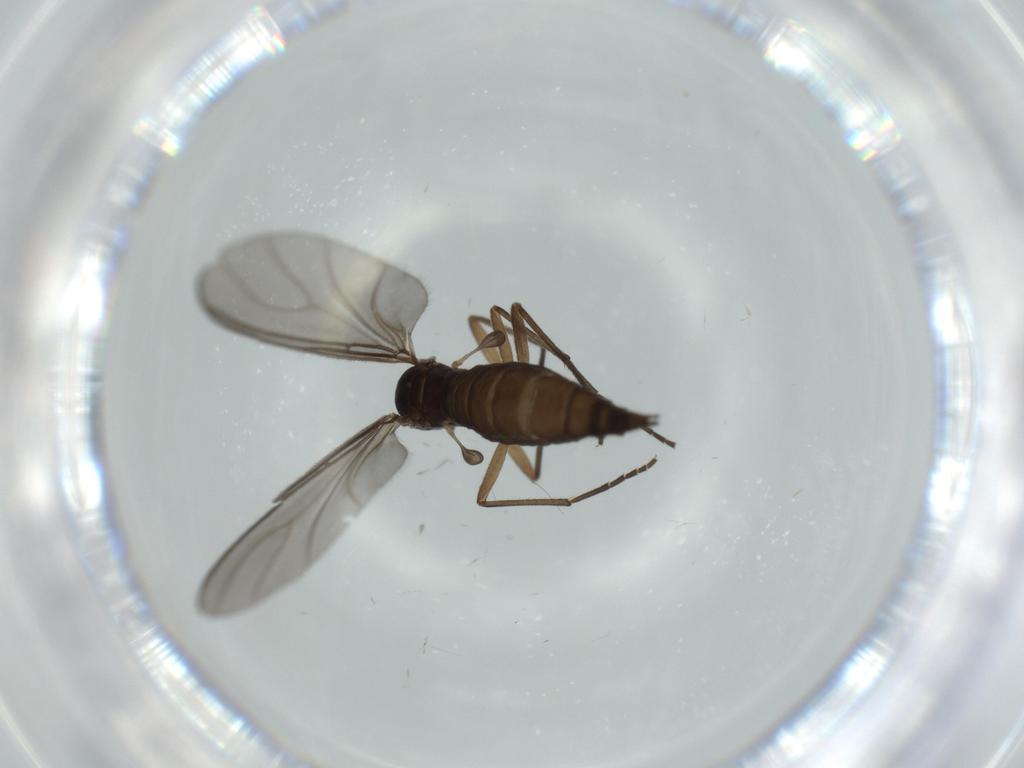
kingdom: Animalia
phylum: Arthropoda
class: Insecta
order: Diptera
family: Sciaridae
